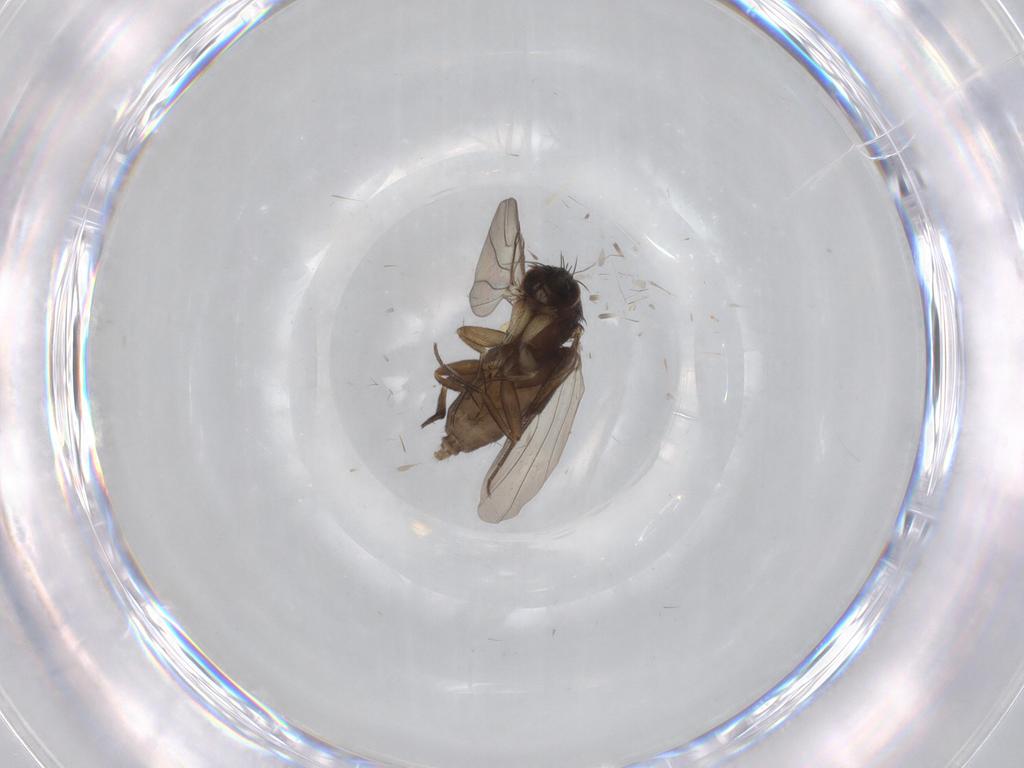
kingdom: Animalia
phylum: Arthropoda
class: Insecta
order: Diptera
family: Phoridae
